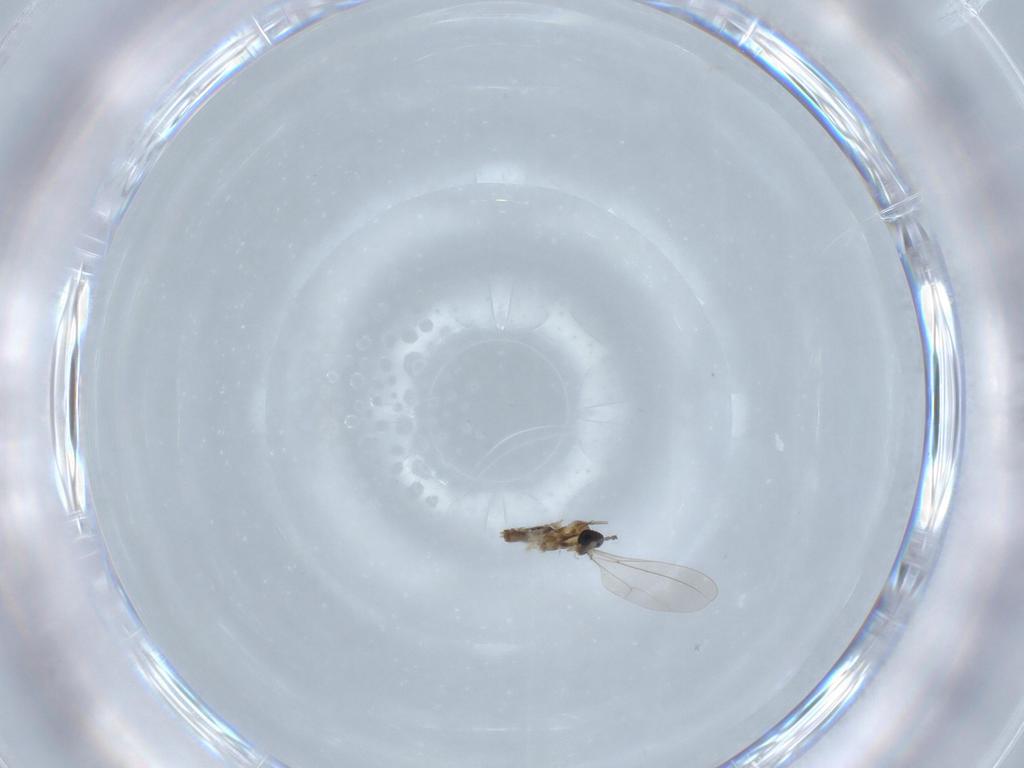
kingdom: Animalia
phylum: Arthropoda
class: Insecta
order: Diptera
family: Cecidomyiidae
